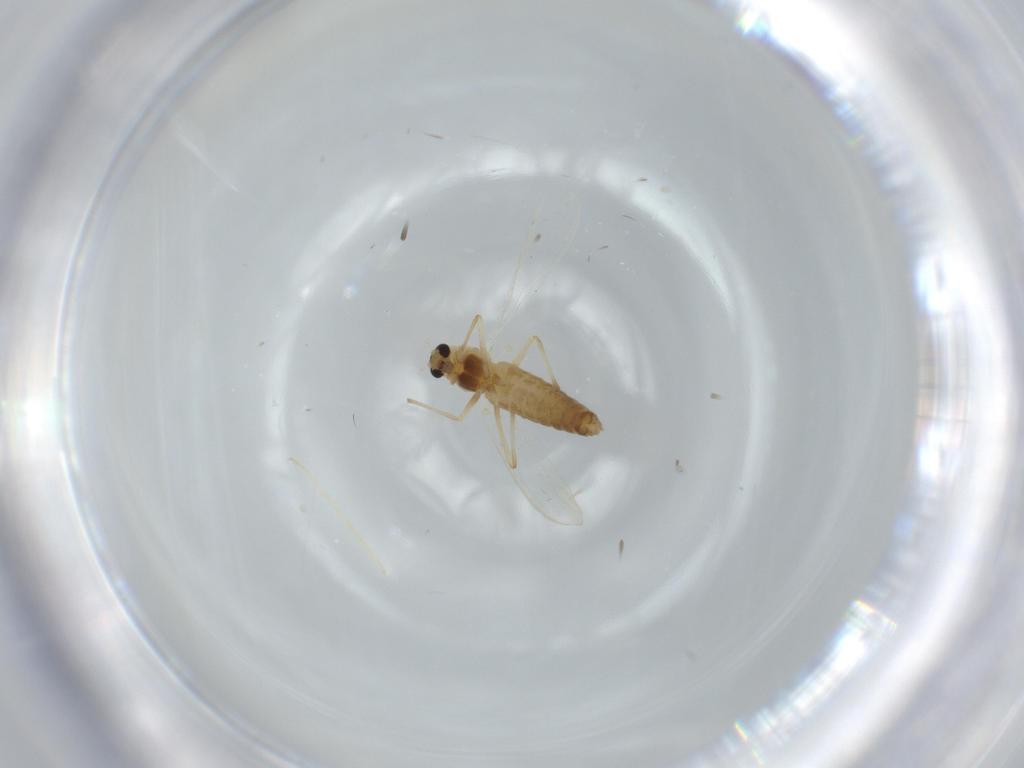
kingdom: Animalia
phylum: Arthropoda
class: Insecta
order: Diptera
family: Chironomidae
